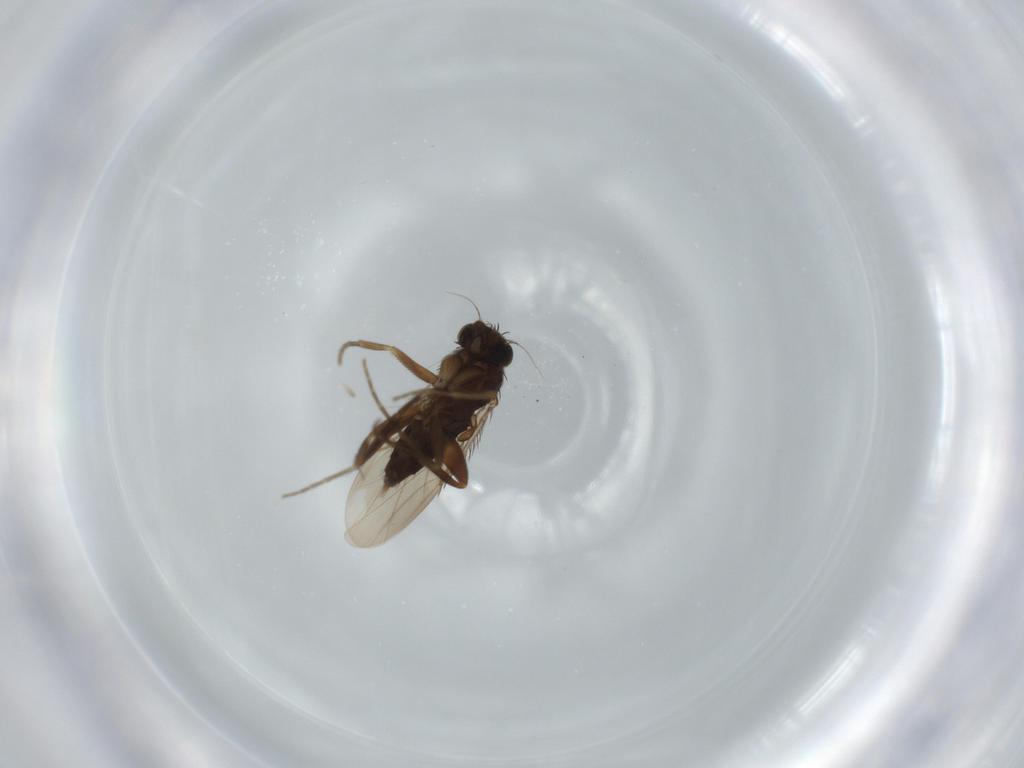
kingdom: Animalia
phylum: Arthropoda
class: Insecta
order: Diptera
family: Phoridae
